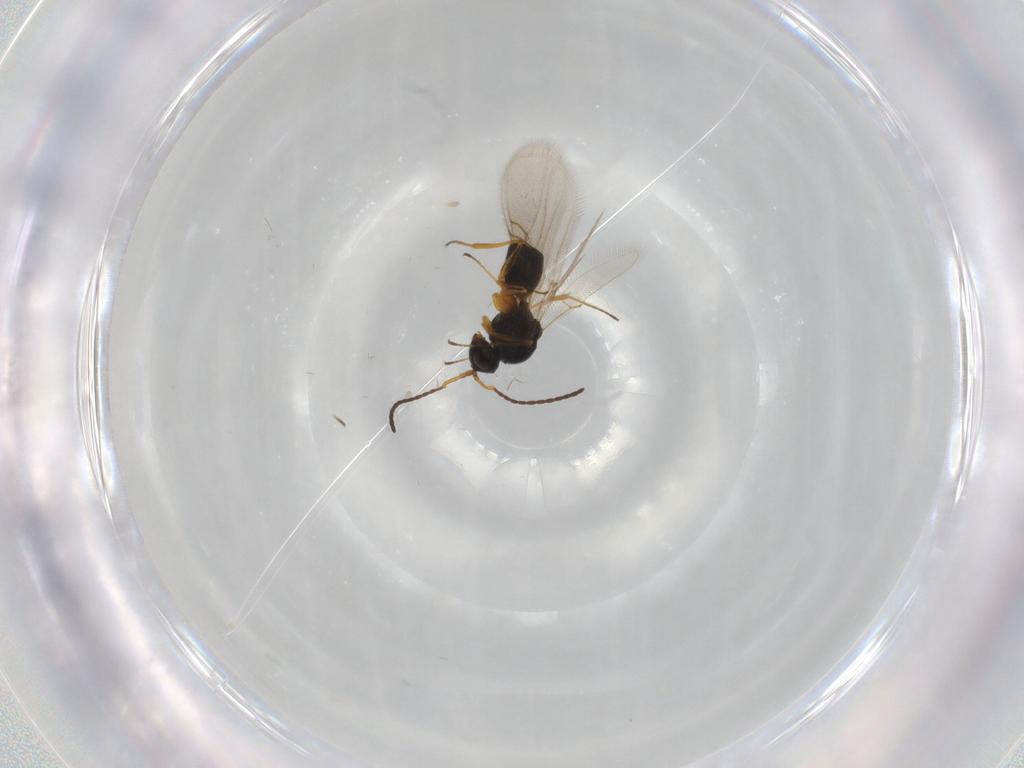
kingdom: Animalia
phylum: Arthropoda
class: Insecta
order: Hymenoptera
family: Figitidae
